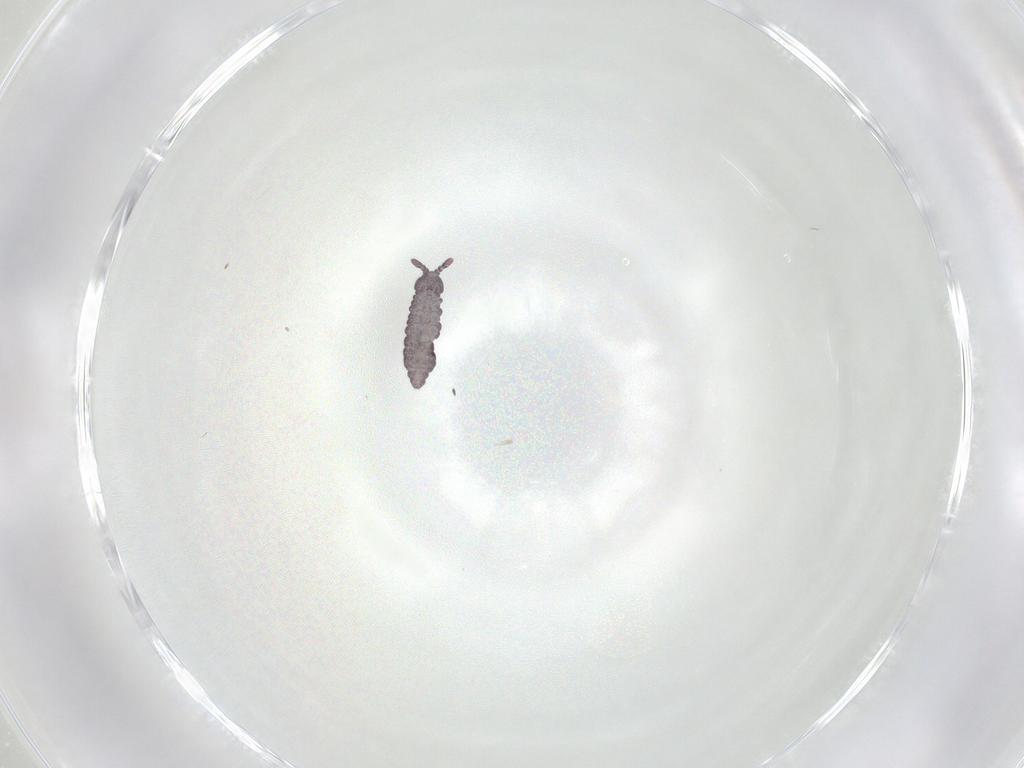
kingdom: Animalia
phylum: Arthropoda
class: Collembola
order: Poduromorpha
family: Hypogastruridae
